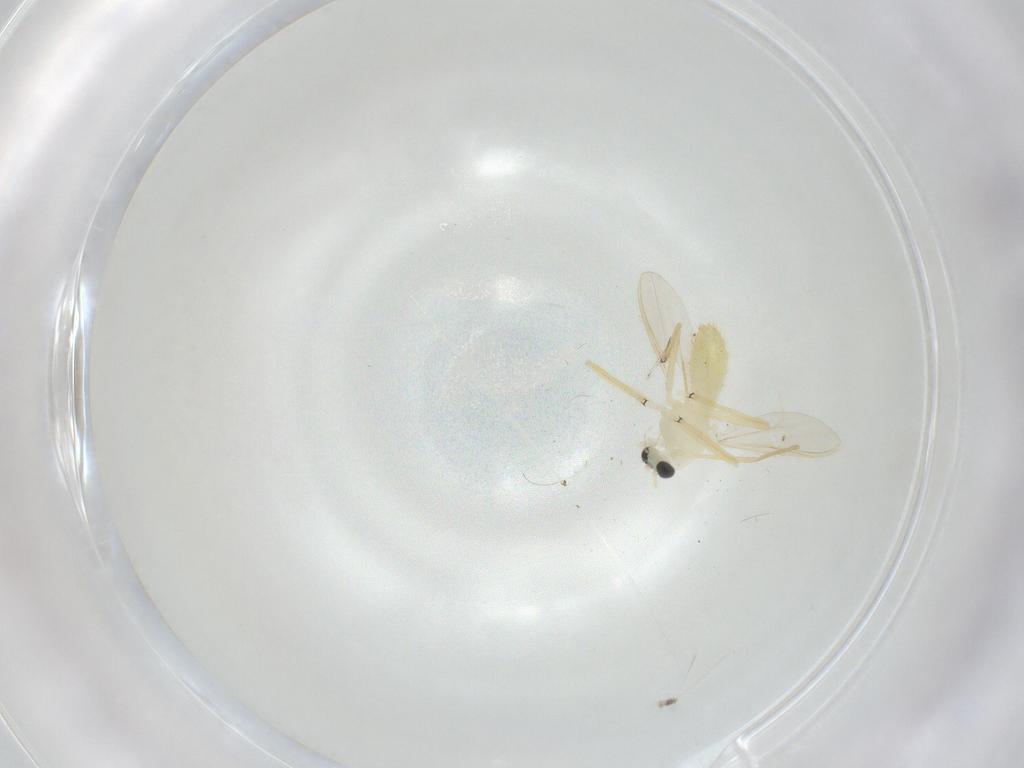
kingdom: Animalia
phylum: Arthropoda
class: Insecta
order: Diptera
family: Chironomidae
